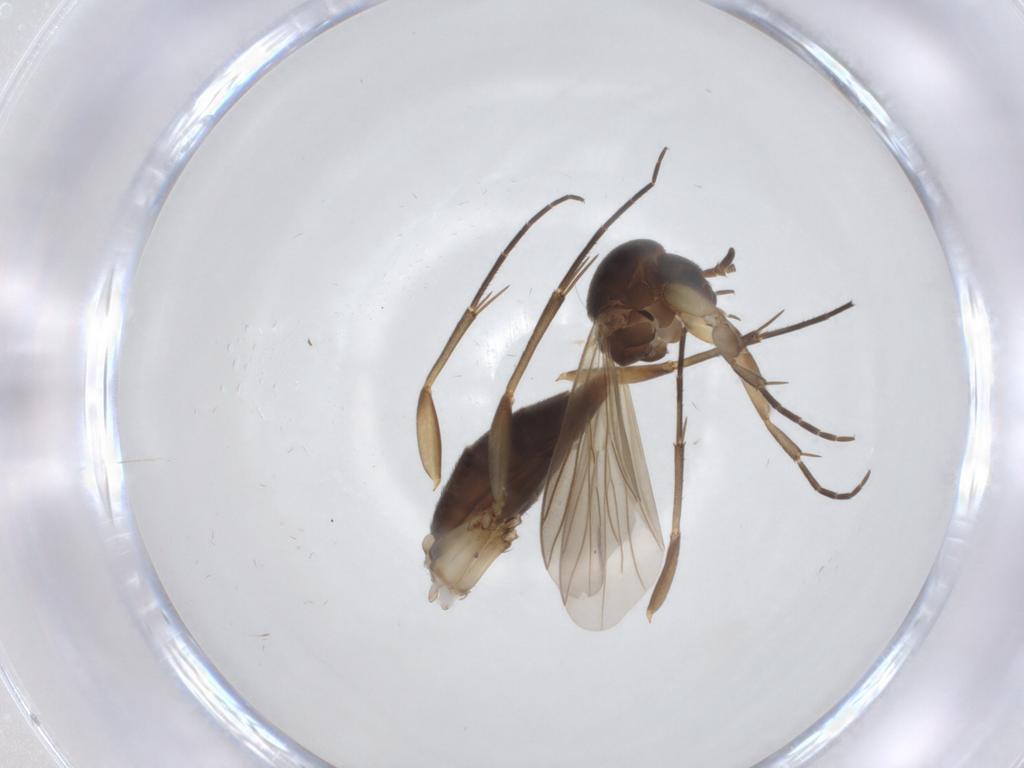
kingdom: Animalia
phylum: Arthropoda
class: Insecta
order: Diptera
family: Mycetophilidae
